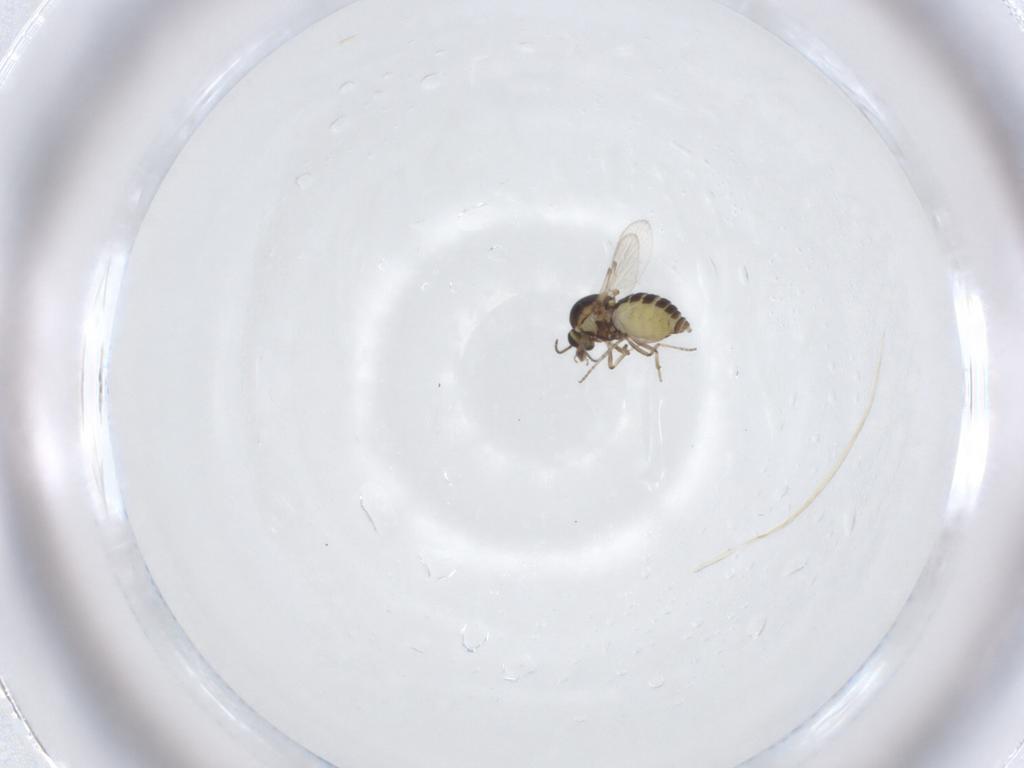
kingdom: Animalia
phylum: Arthropoda
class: Insecta
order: Diptera
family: Ceratopogonidae
